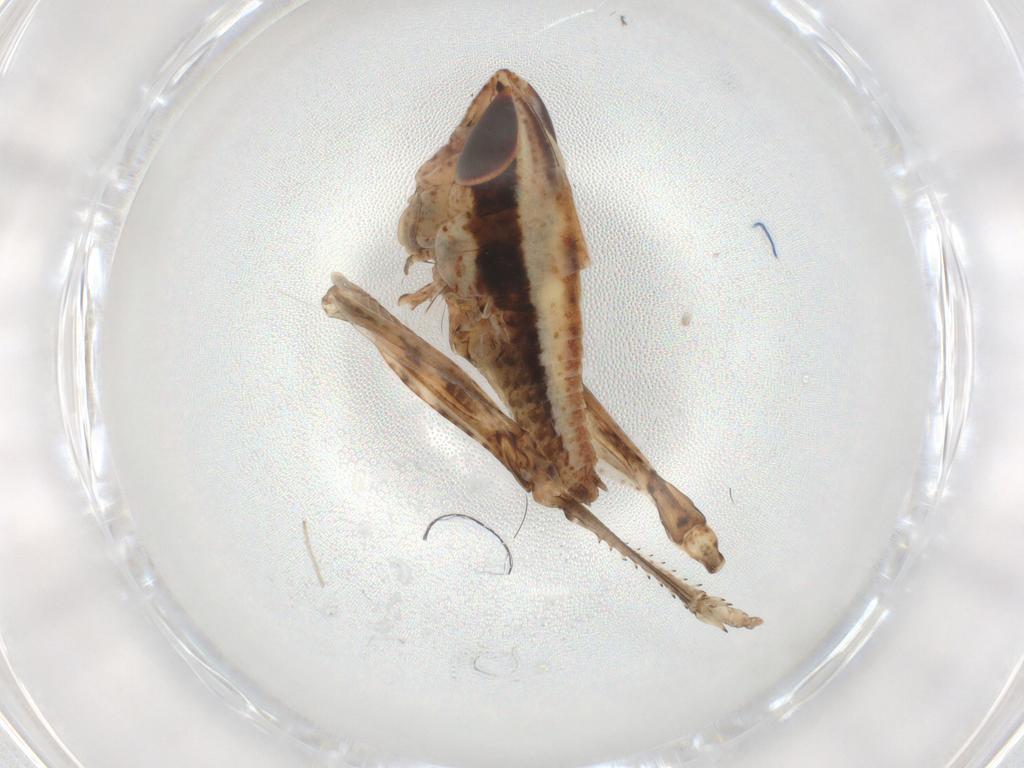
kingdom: Animalia
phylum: Arthropoda
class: Insecta
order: Orthoptera
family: Acrididae
